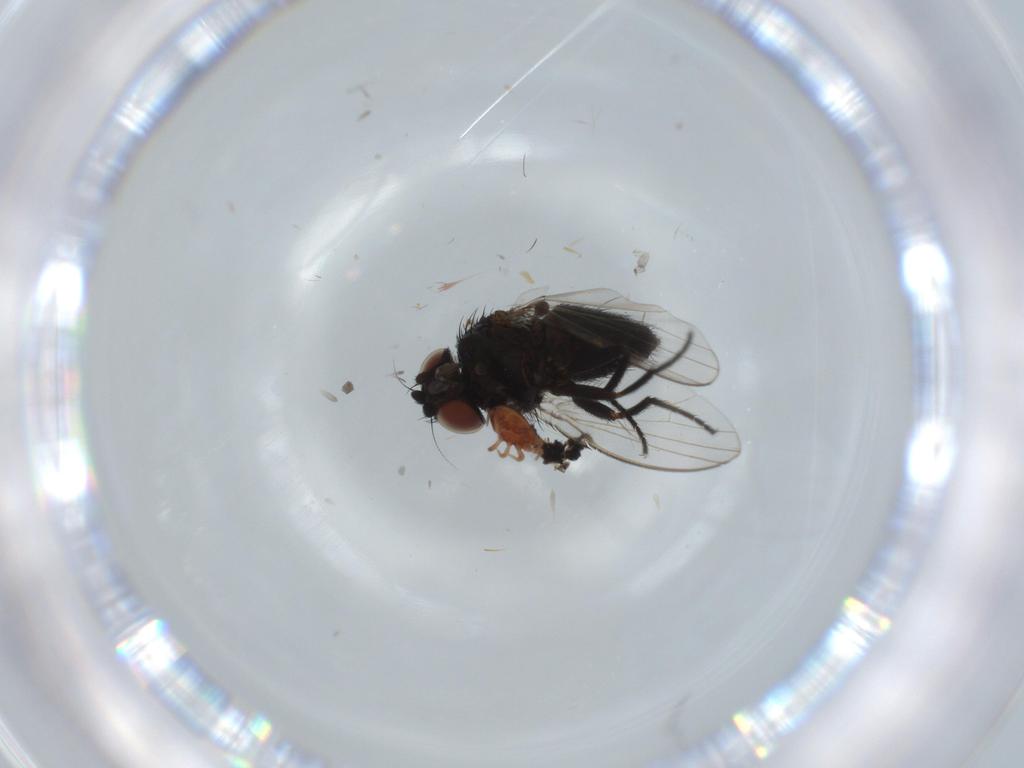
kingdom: Animalia
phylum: Arthropoda
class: Insecta
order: Diptera
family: Limoniidae
